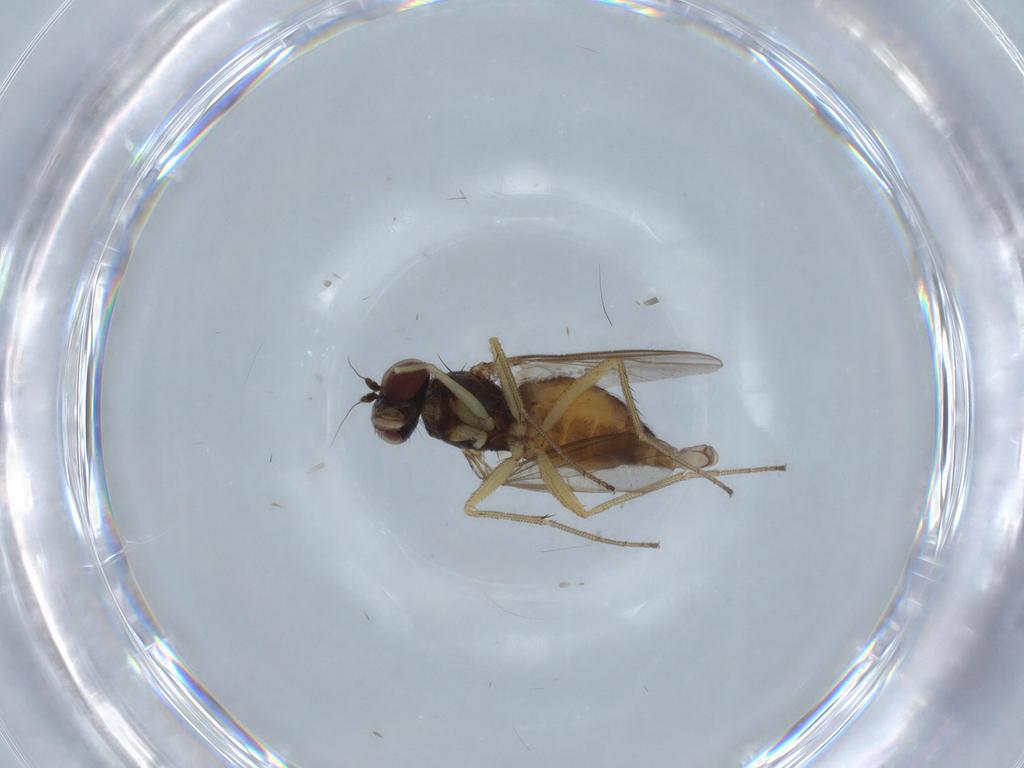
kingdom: Animalia
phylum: Arthropoda
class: Insecta
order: Diptera
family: Dolichopodidae
